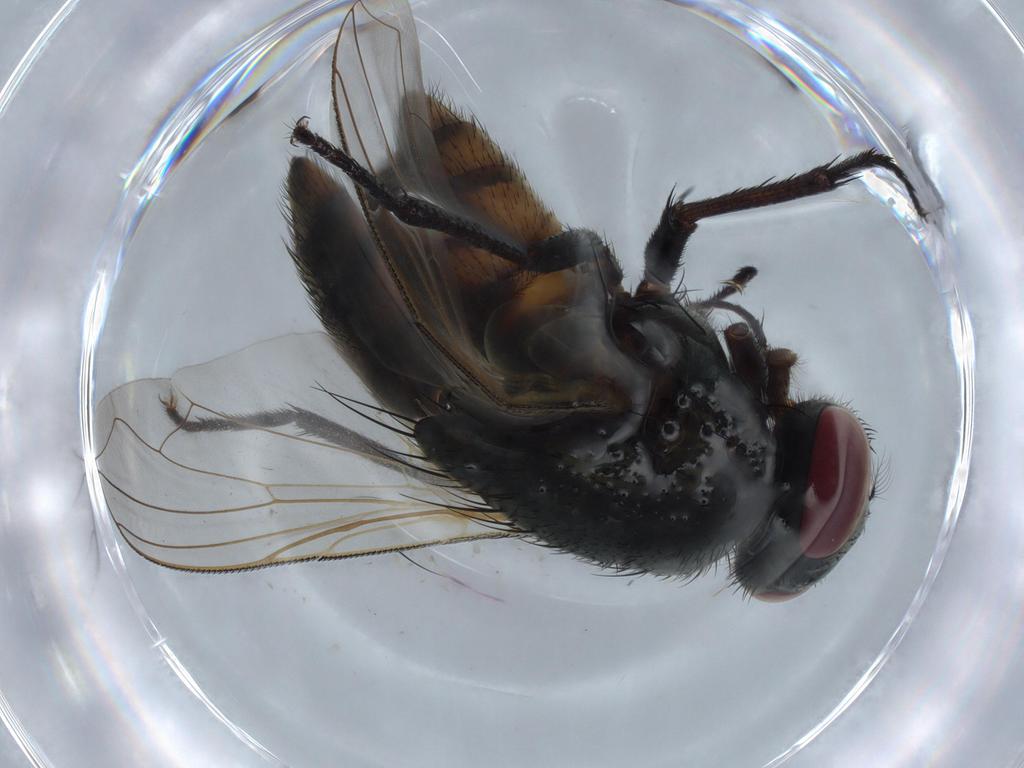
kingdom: Animalia
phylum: Arthropoda
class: Insecta
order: Diptera
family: Muscidae
